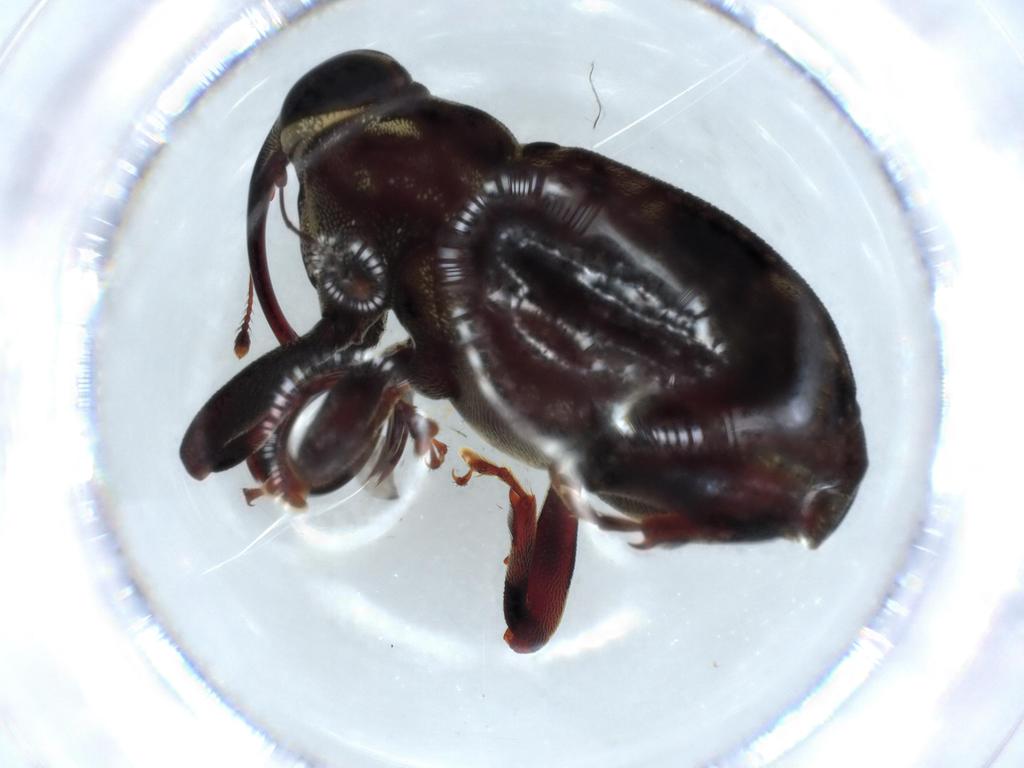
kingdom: Animalia
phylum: Arthropoda
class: Insecta
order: Coleoptera
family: Curculionidae
